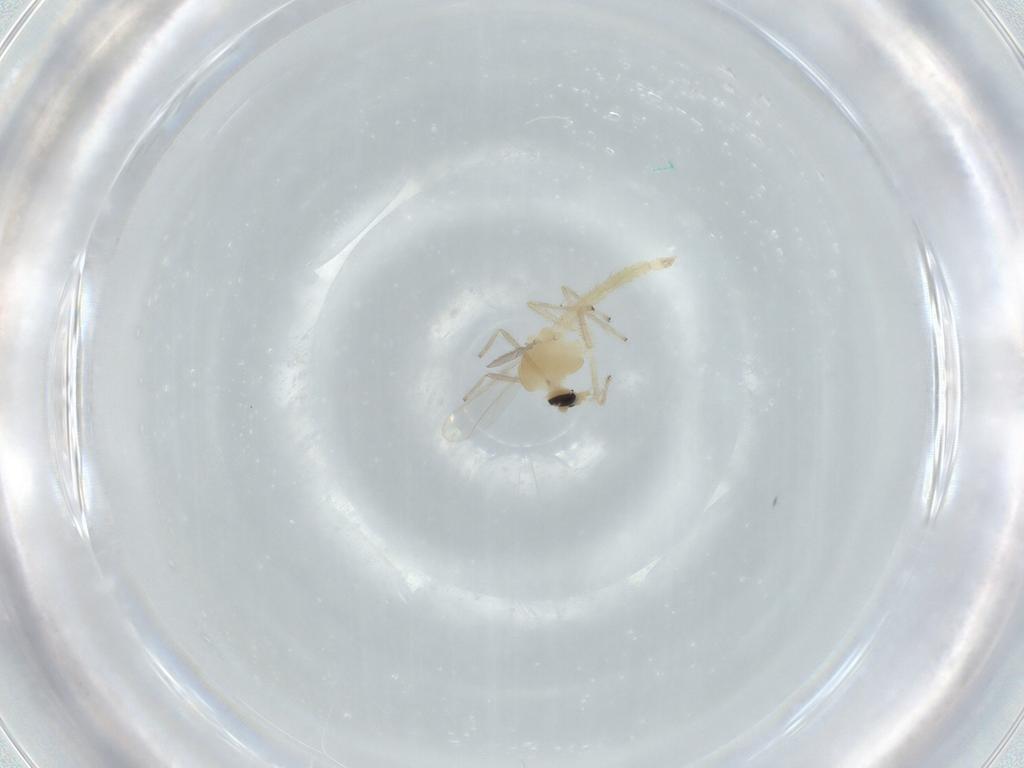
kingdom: Animalia
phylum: Arthropoda
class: Insecta
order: Diptera
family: Chironomidae
